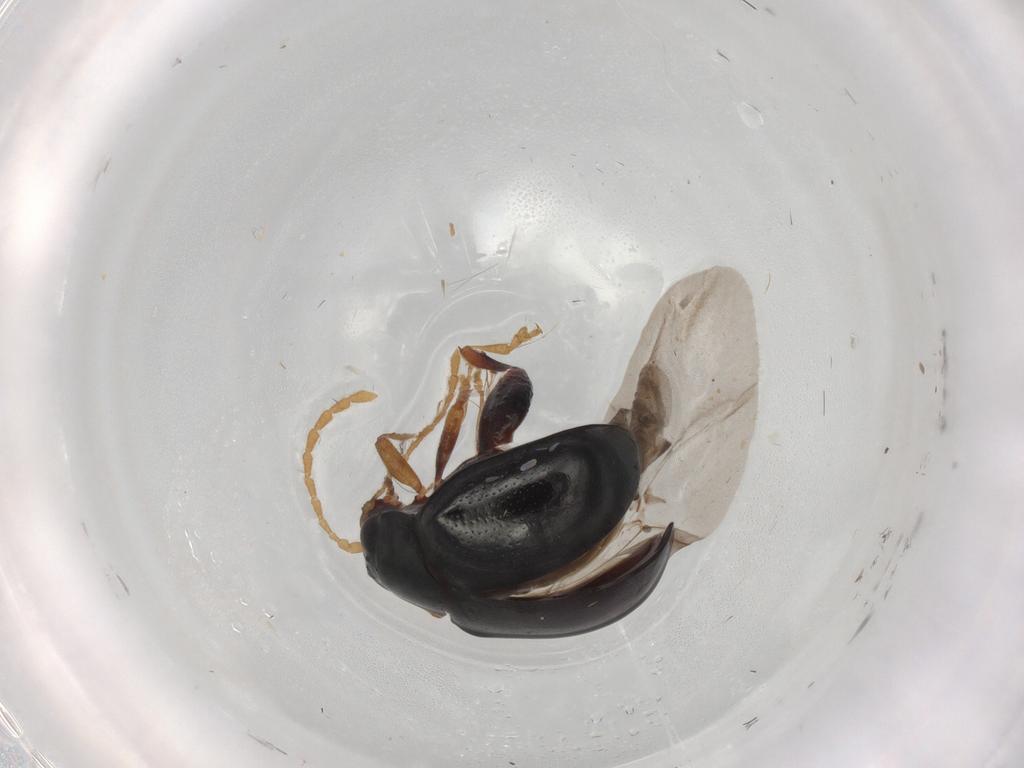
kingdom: Animalia
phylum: Arthropoda
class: Insecta
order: Coleoptera
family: Chrysomelidae
